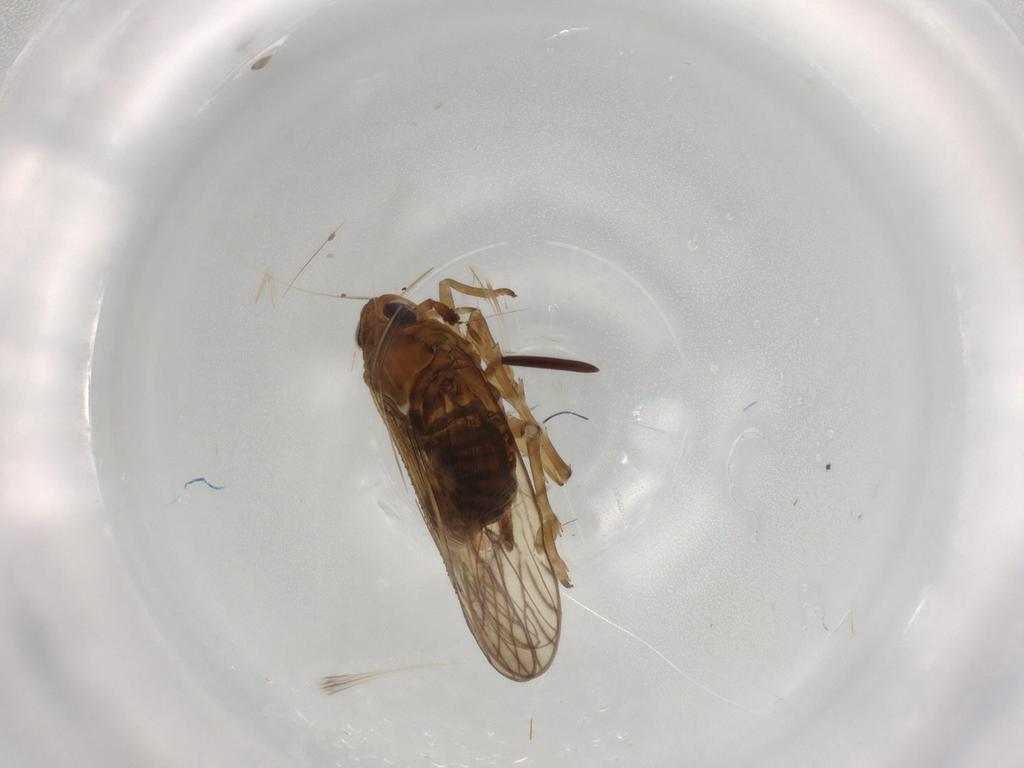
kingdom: Animalia
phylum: Arthropoda
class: Insecta
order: Hemiptera
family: Delphacidae
